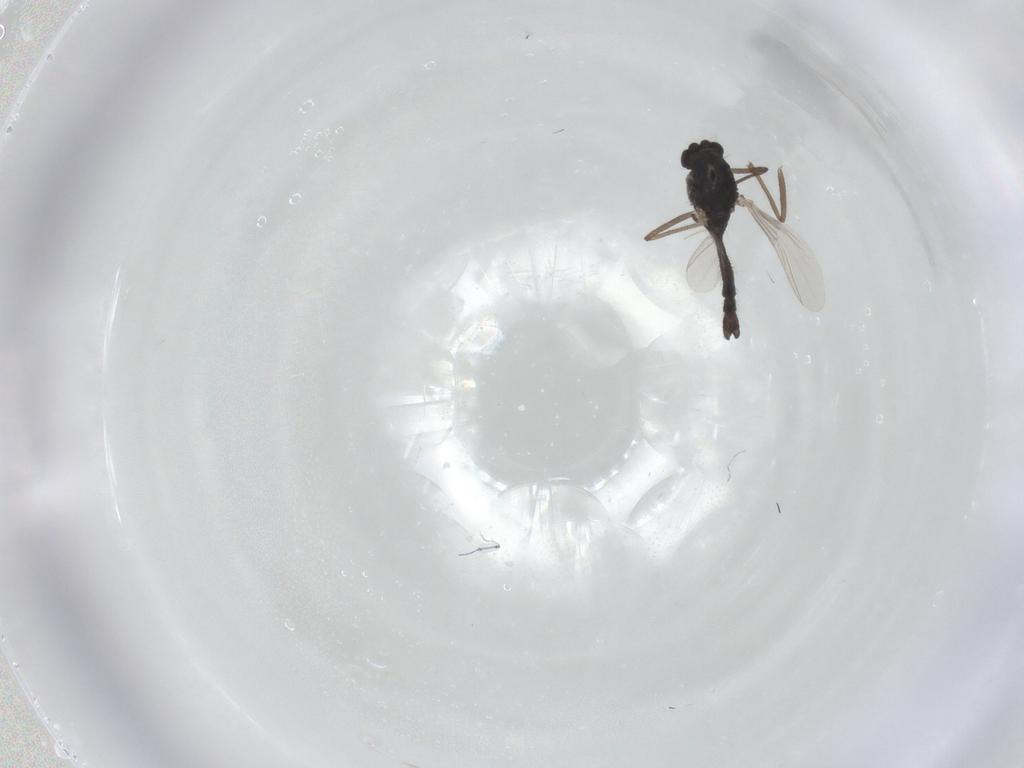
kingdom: Animalia
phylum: Arthropoda
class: Insecta
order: Diptera
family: Chironomidae
